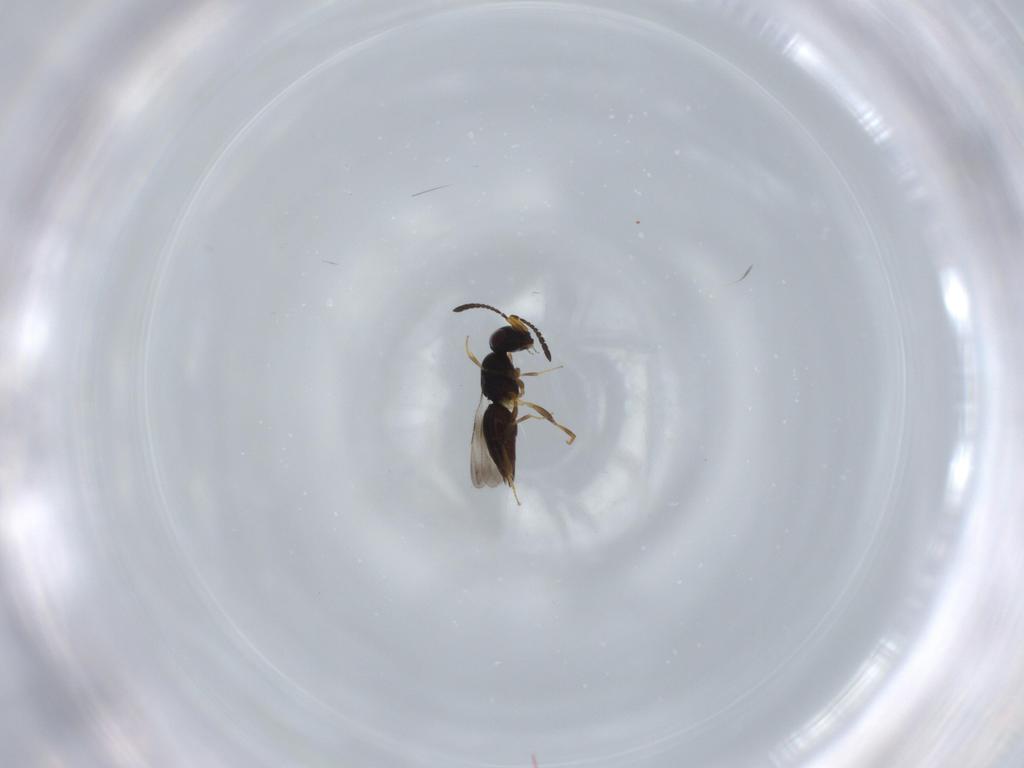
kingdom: Animalia
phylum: Arthropoda
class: Insecta
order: Hymenoptera
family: Ceraphronidae
